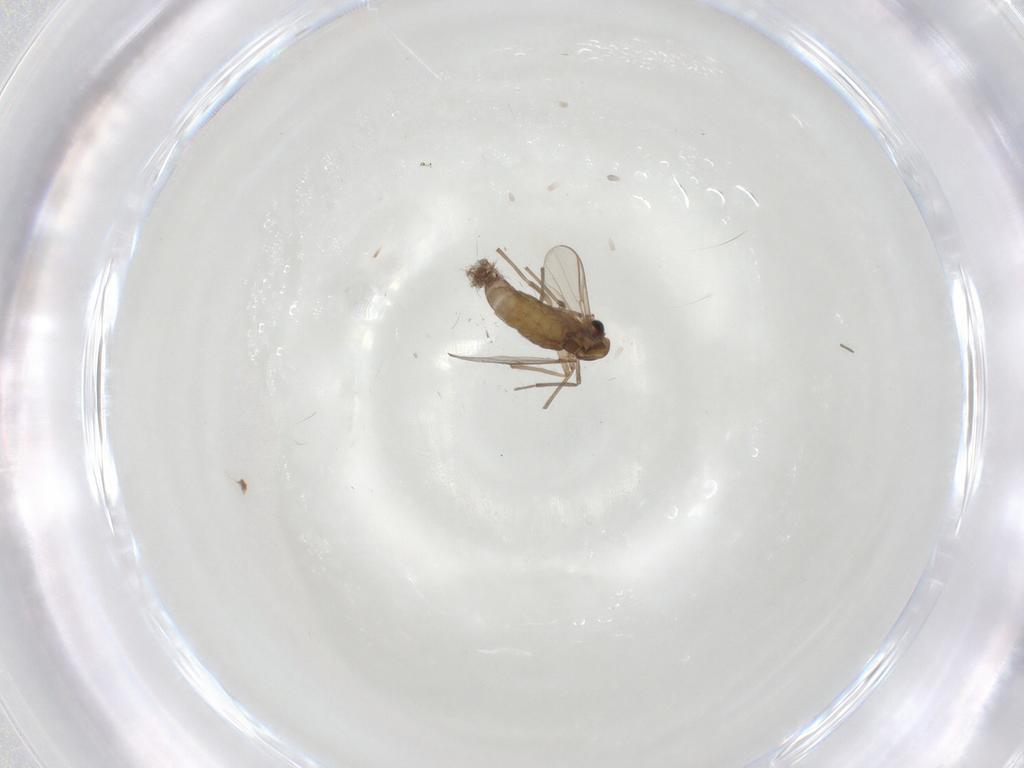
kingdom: Animalia
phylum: Arthropoda
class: Insecta
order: Diptera
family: Chironomidae
